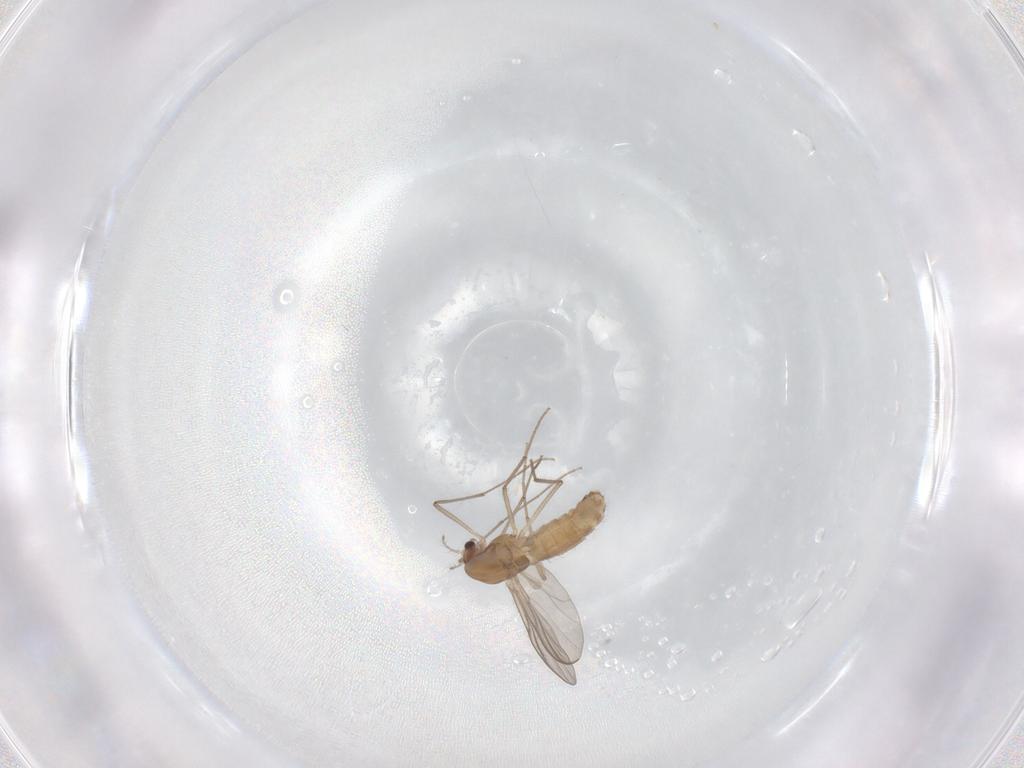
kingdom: Animalia
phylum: Arthropoda
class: Insecta
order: Diptera
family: Chironomidae
